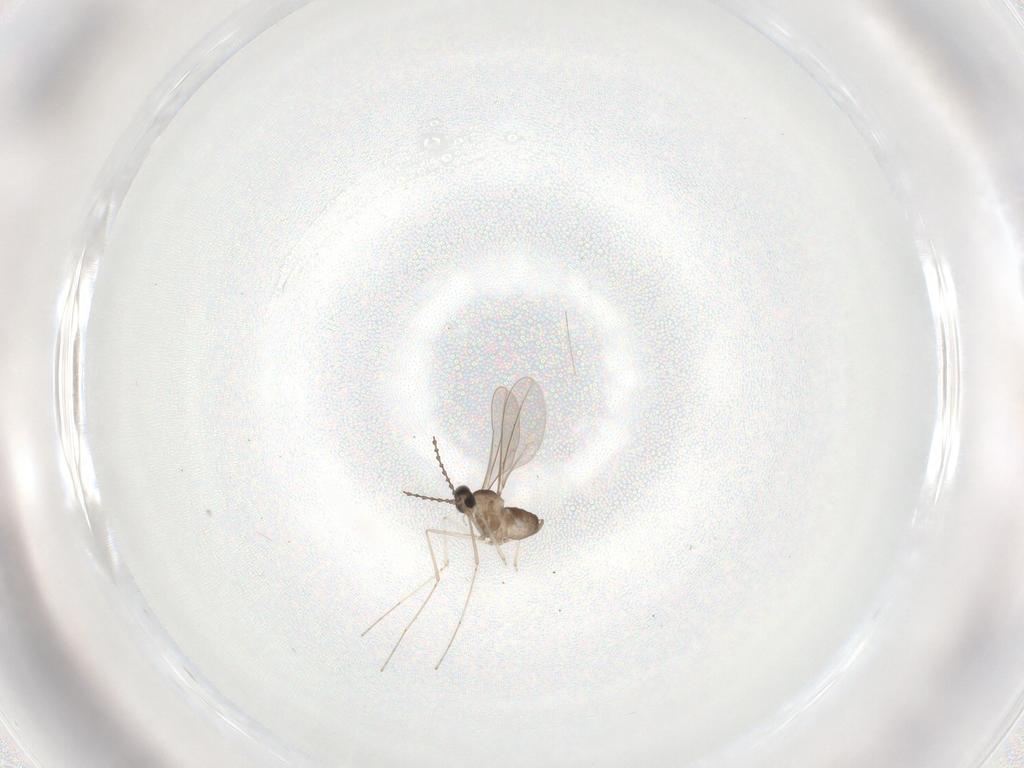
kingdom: Animalia
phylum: Arthropoda
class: Insecta
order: Diptera
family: Cecidomyiidae
